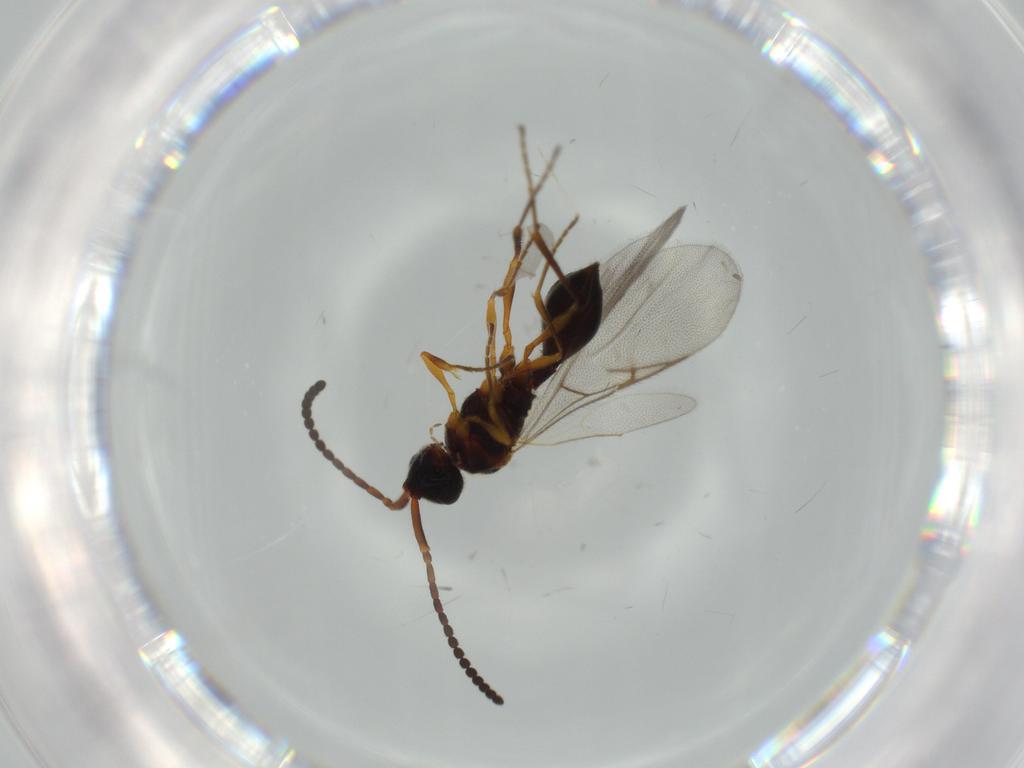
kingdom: Animalia
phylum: Arthropoda
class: Insecta
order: Hymenoptera
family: Diapriidae
